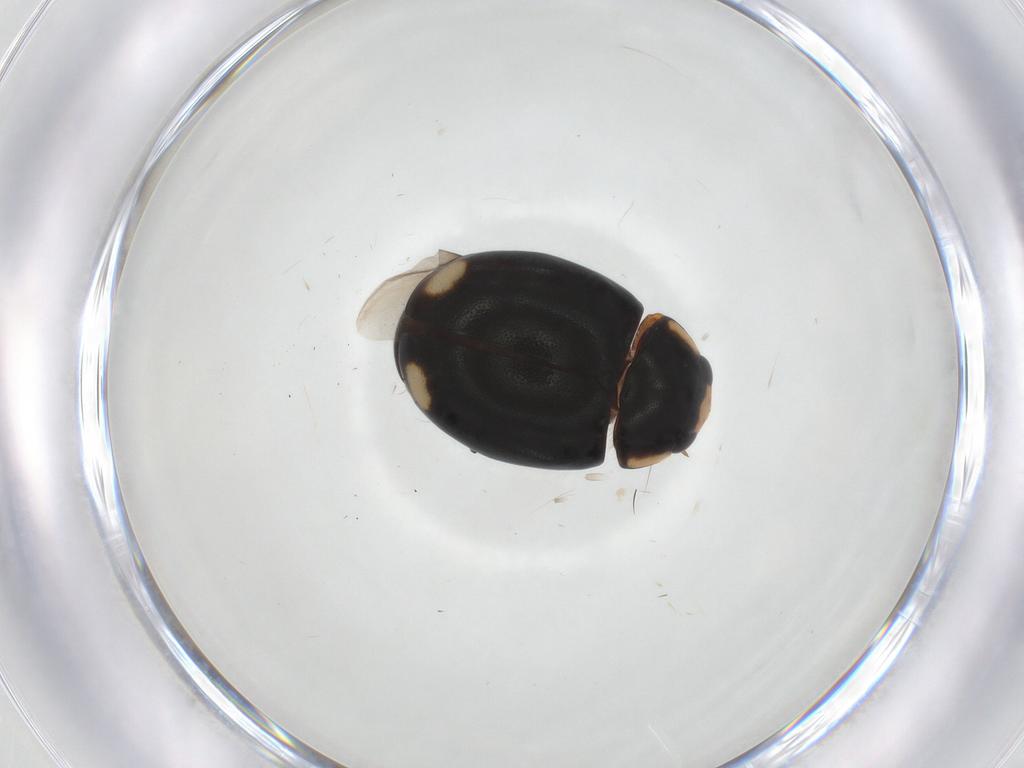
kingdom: Animalia
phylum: Arthropoda
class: Insecta
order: Coleoptera
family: Coccinellidae
